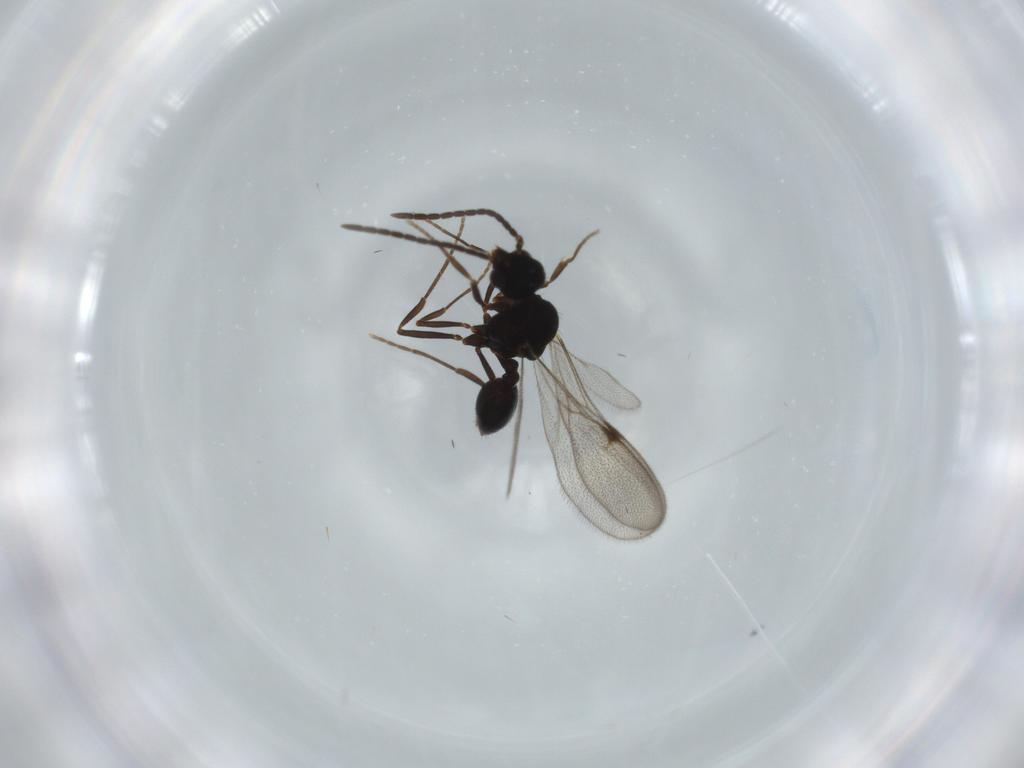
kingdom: Animalia
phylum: Arthropoda
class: Insecta
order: Hymenoptera
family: Formicidae
